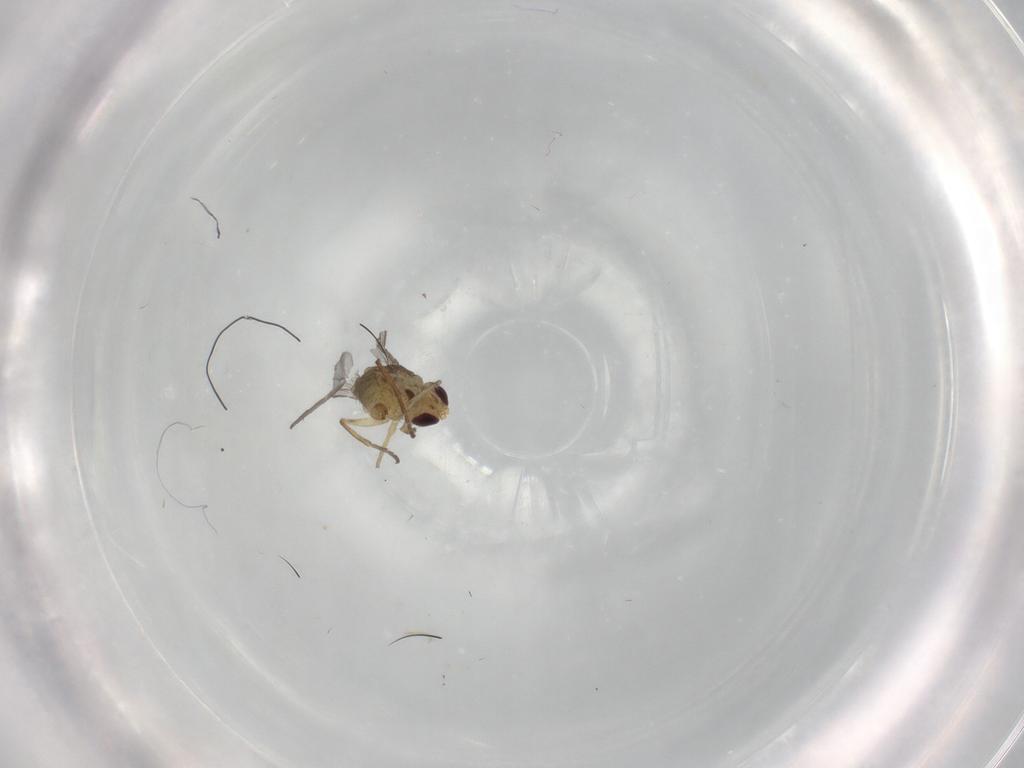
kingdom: Animalia
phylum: Arthropoda
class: Insecta
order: Diptera
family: Agromyzidae
